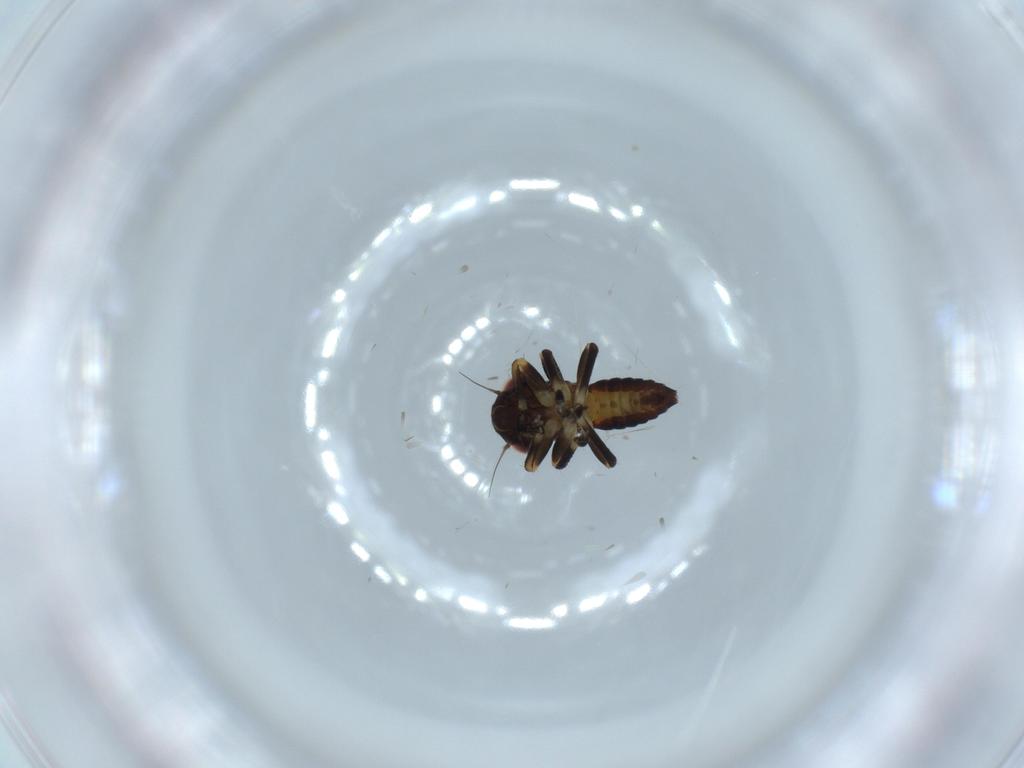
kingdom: Animalia
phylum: Arthropoda
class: Insecta
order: Hemiptera
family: Cicadellidae
